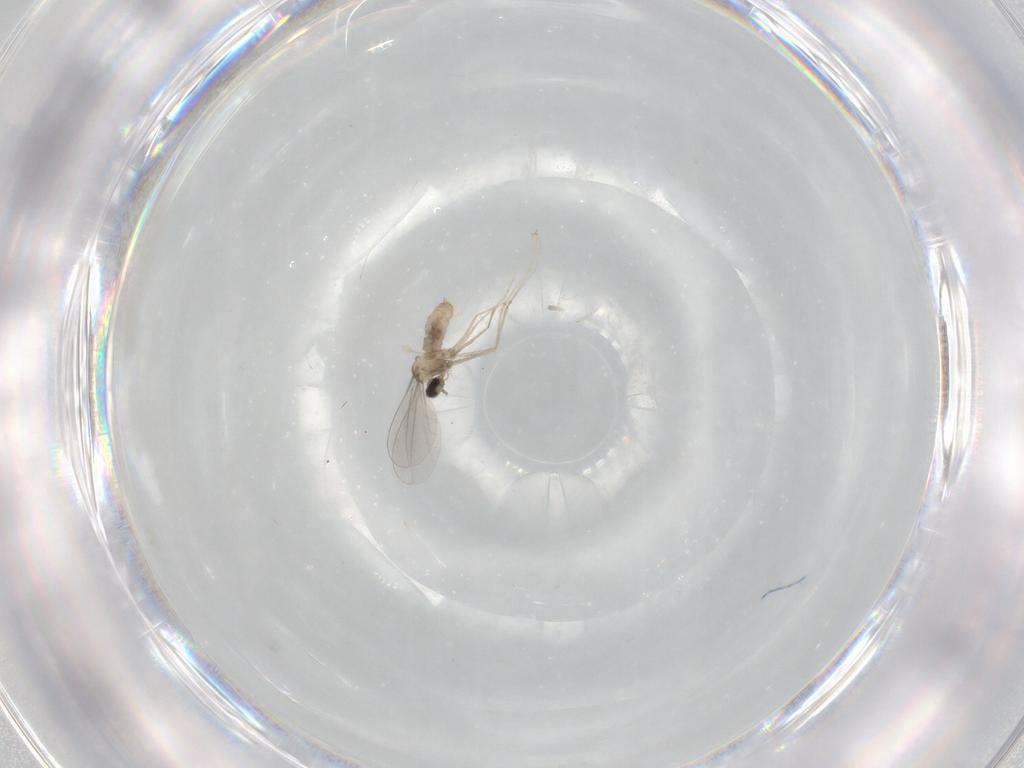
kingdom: Animalia
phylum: Arthropoda
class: Insecta
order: Diptera
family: Cecidomyiidae
